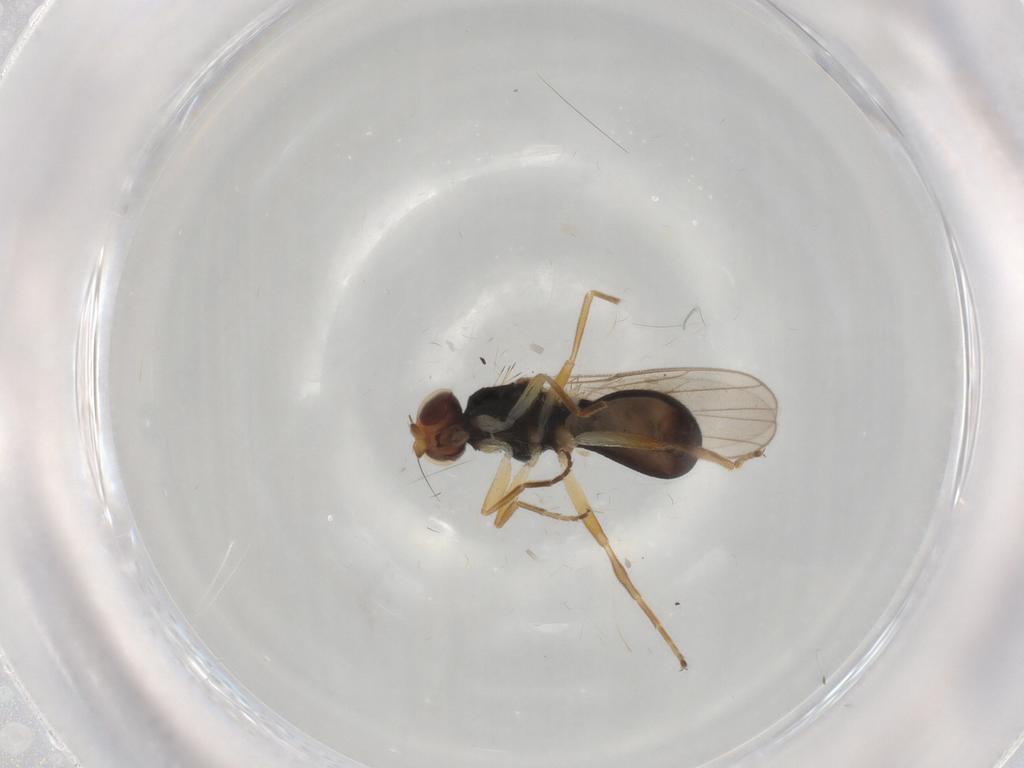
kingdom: Animalia
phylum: Arthropoda
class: Insecta
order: Diptera
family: Chloropidae
